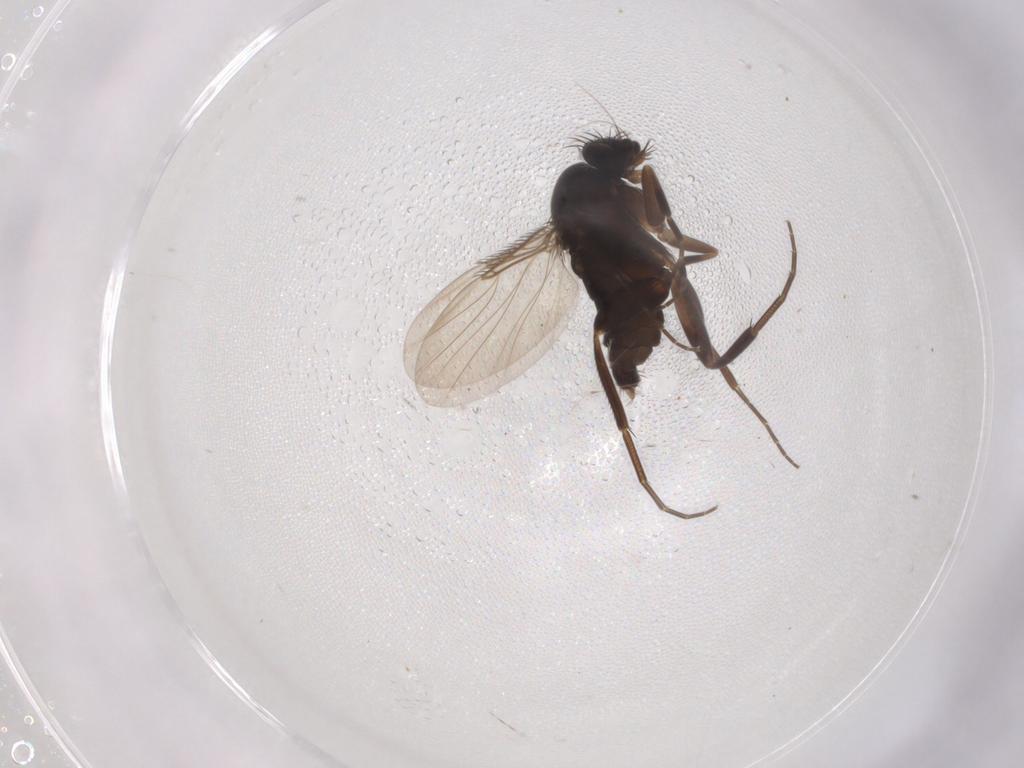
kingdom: Animalia
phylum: Arthropoda
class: Insecta
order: Diptera
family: Phoridae
